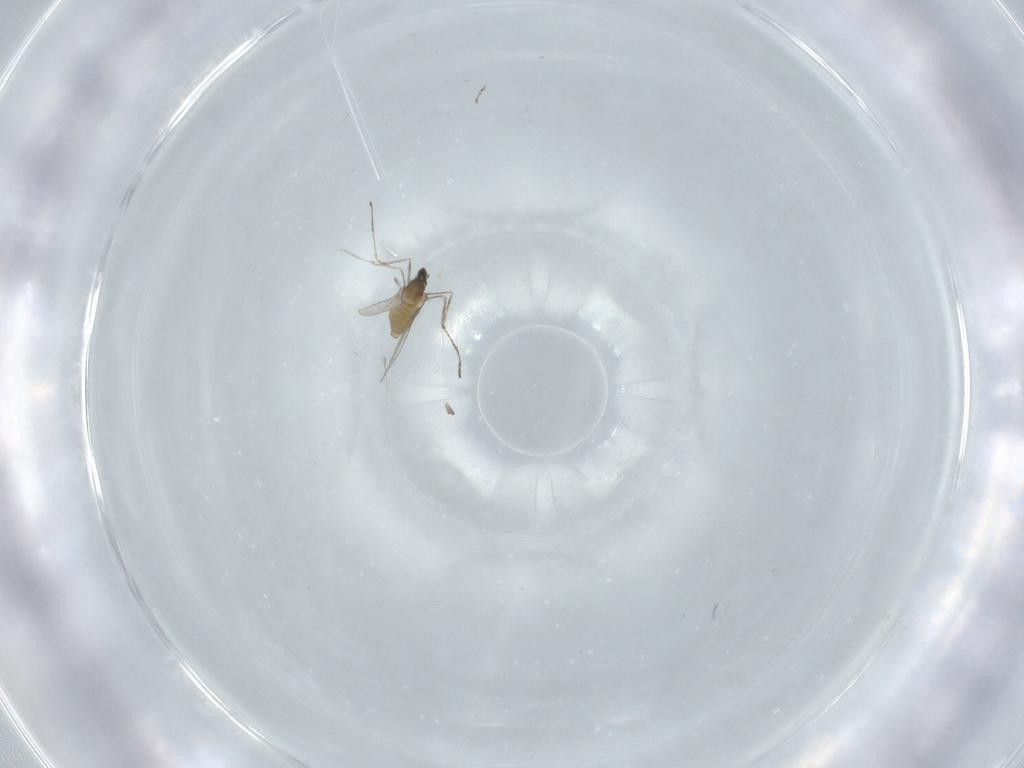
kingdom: Animalia
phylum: Arthropoda
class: Insecta
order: Diptera
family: Cecidomyiidae
